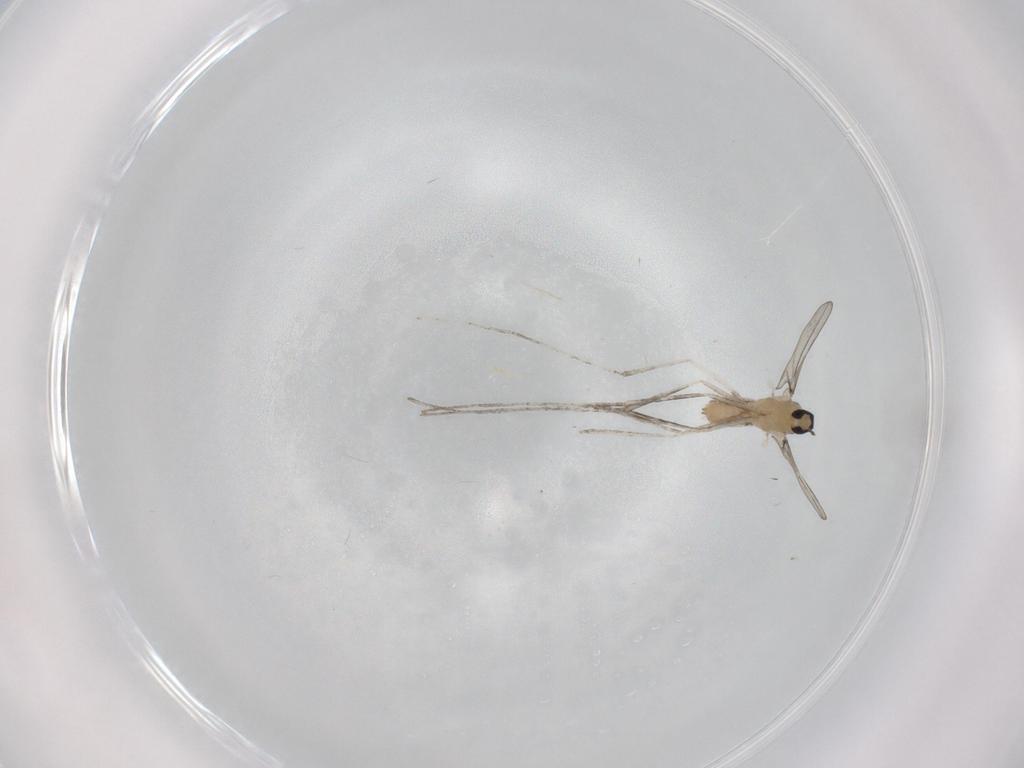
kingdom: Animalia
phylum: Arthropoda
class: Insecta
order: Diptera
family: Cecidomyiidae
